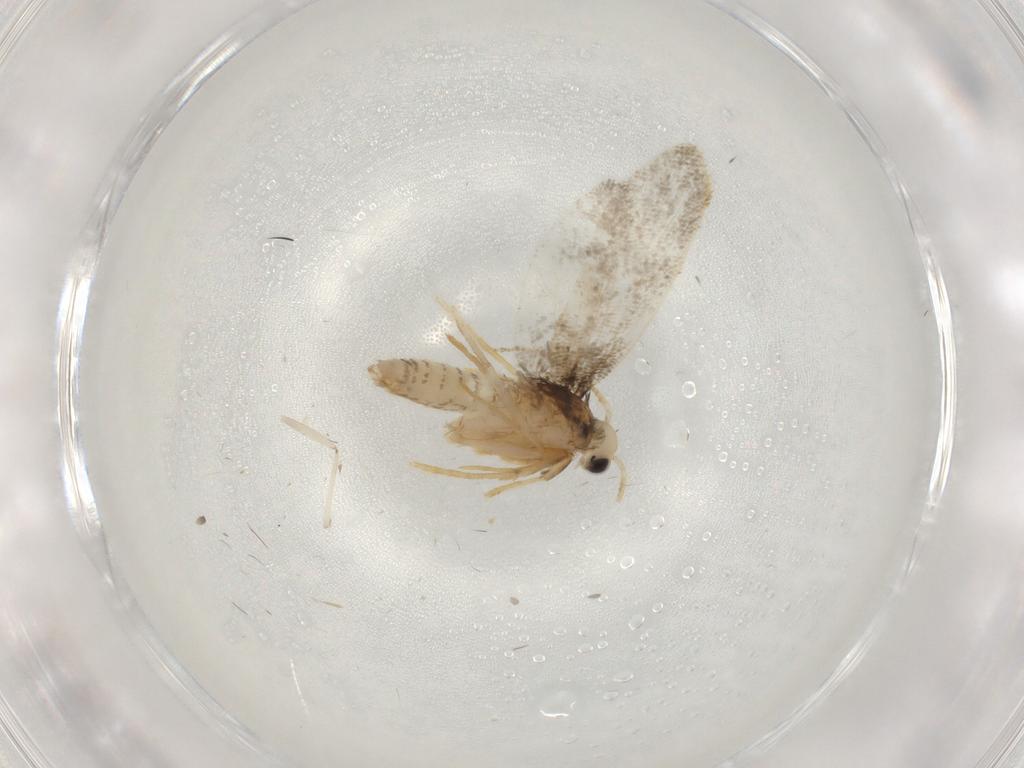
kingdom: Animalia
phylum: Arthropoda
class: Insecta
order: Lepidoptera
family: Psychidae
